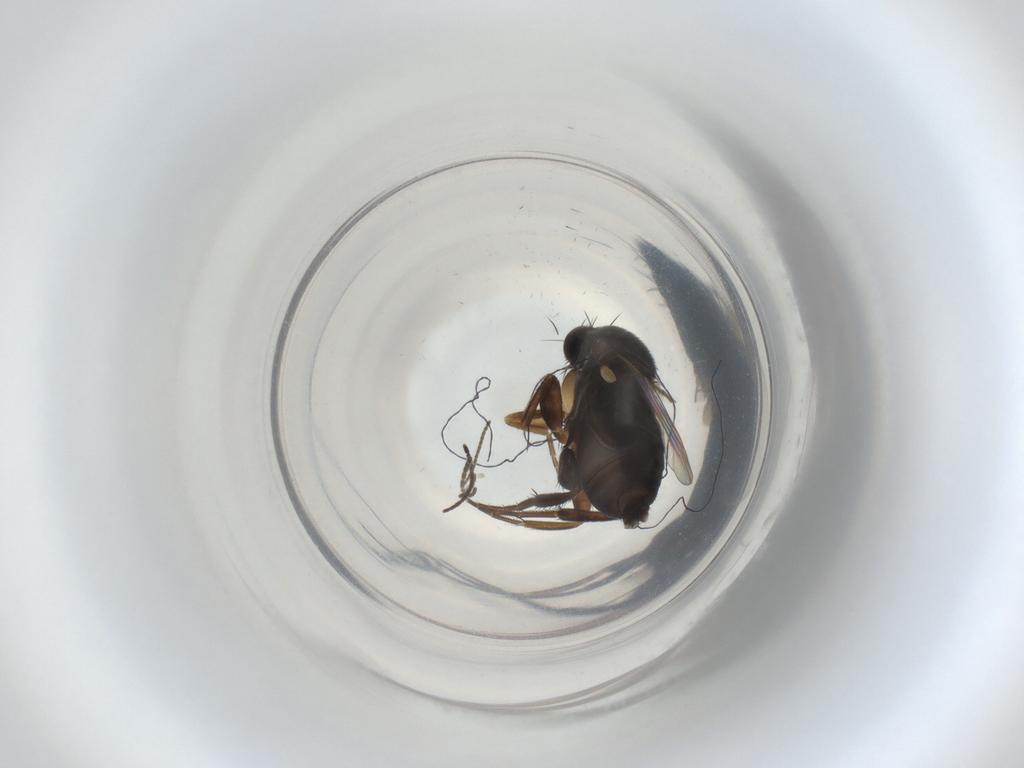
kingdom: Animalia
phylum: Arthropoda
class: Insecta
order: Diptera
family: Phoridae
